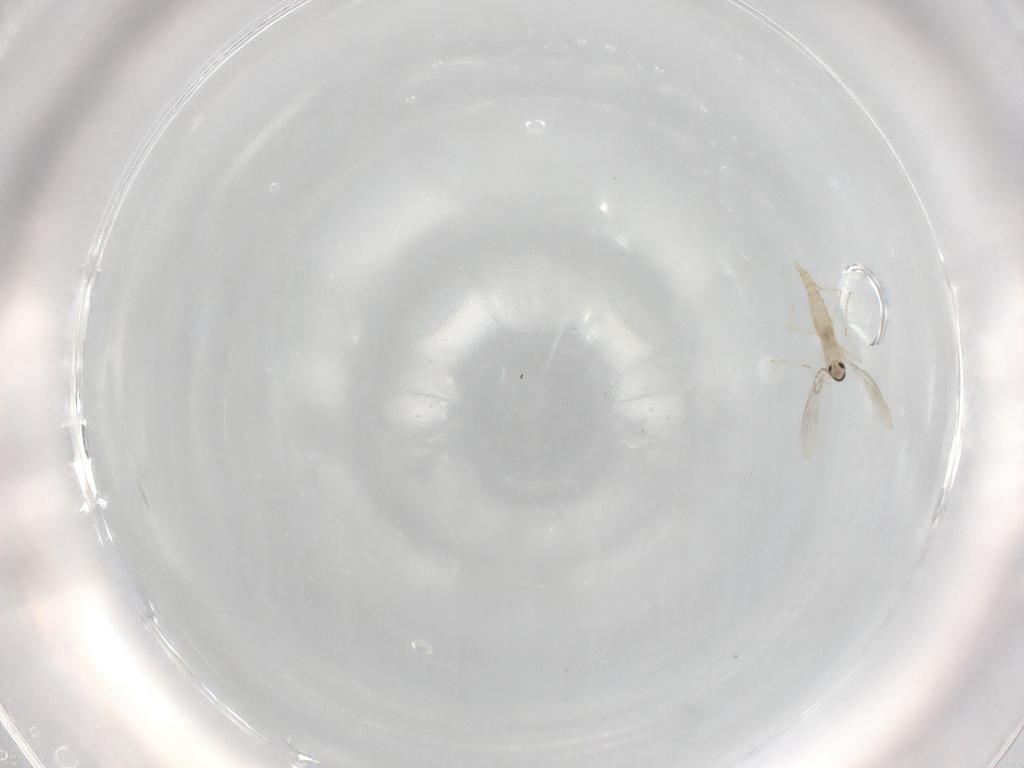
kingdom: Animalia
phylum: Arthropoda
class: Insecta
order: Diptera
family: Cecidomyiidae
